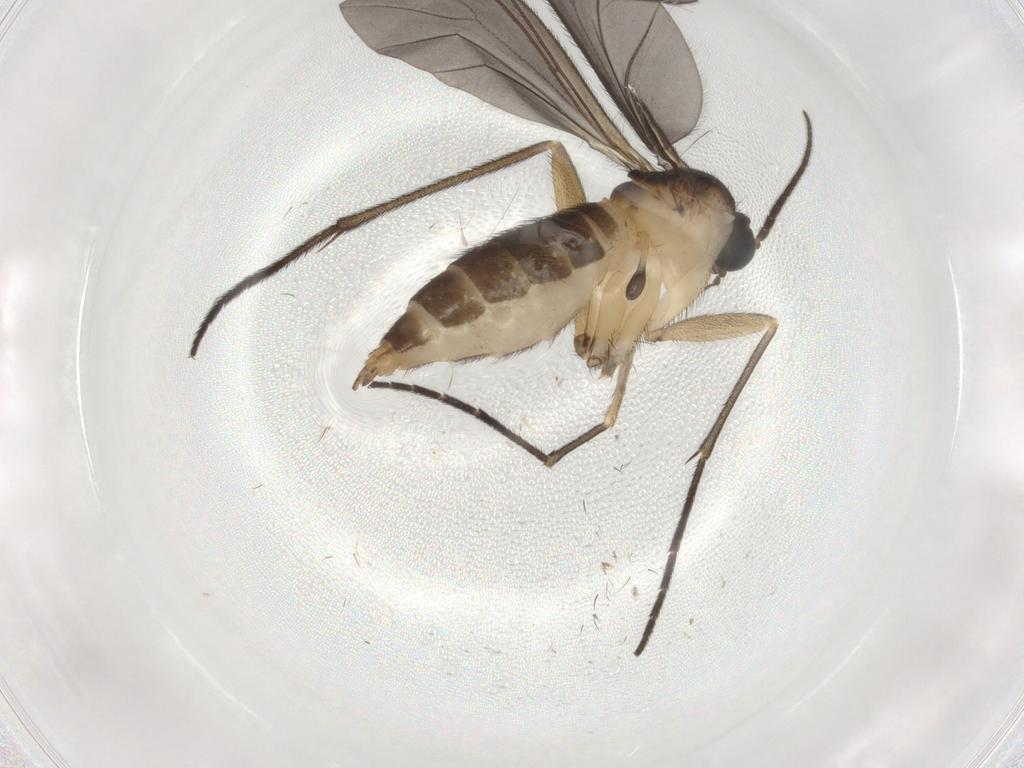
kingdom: Animalia
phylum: Arthropoda
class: Insecta
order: Diptera
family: Sciaridae
